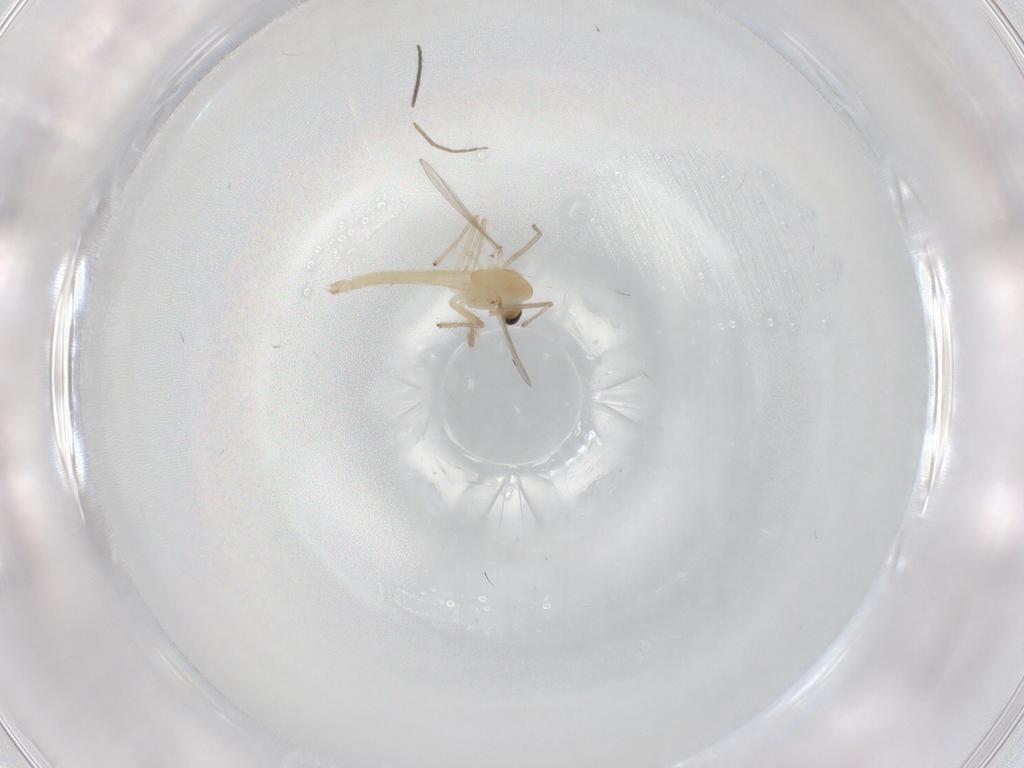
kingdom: Animalia
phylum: Arthropoda
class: Insecta
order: Diptera
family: Chironomidae
